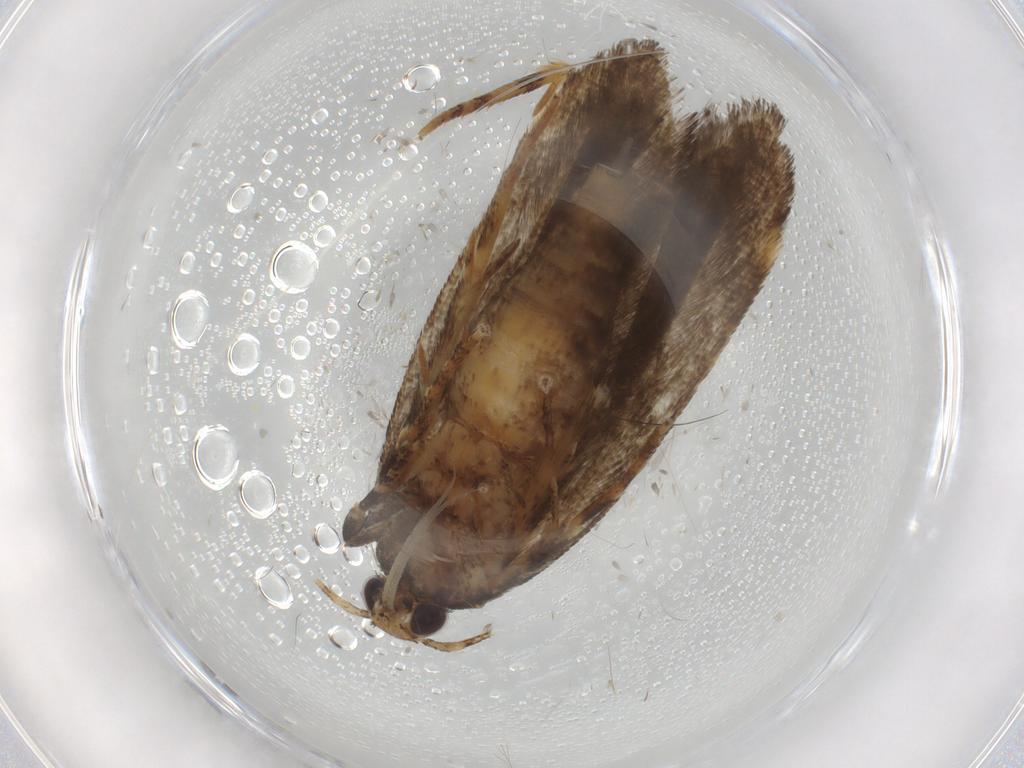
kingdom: Animalia
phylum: Arthropoda
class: Insecta
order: Lepidoptera
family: Gelechiidae
